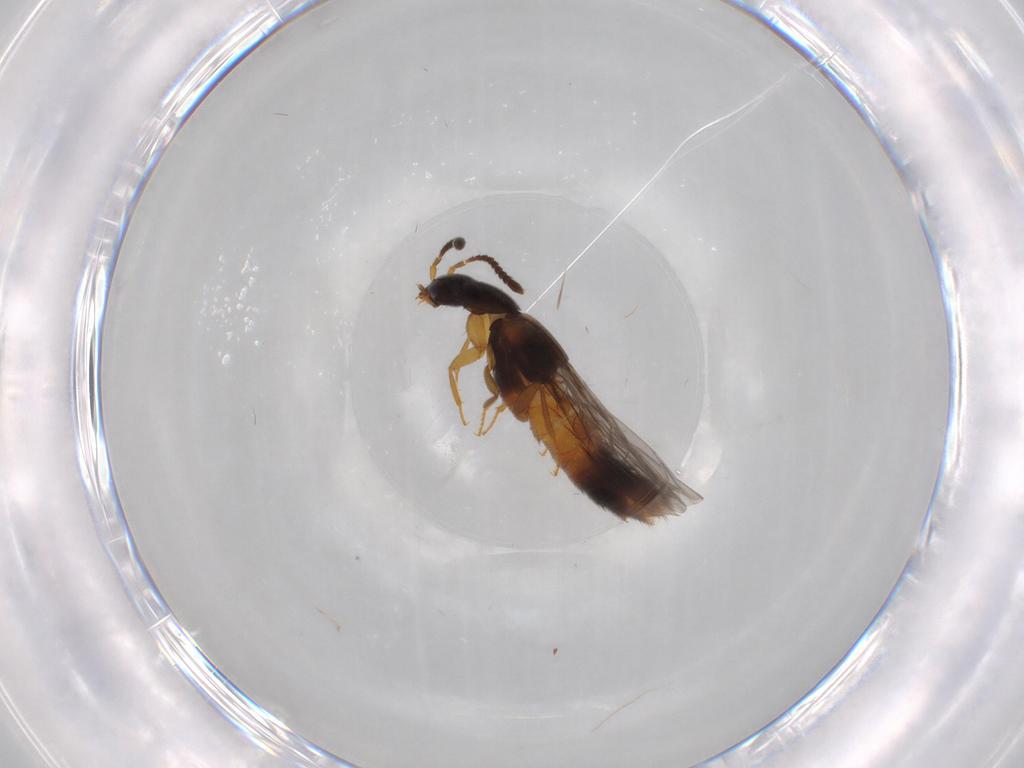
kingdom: Animalia
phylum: Arthropoda
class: Insecta
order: Coleoptera
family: Staphylinidae
